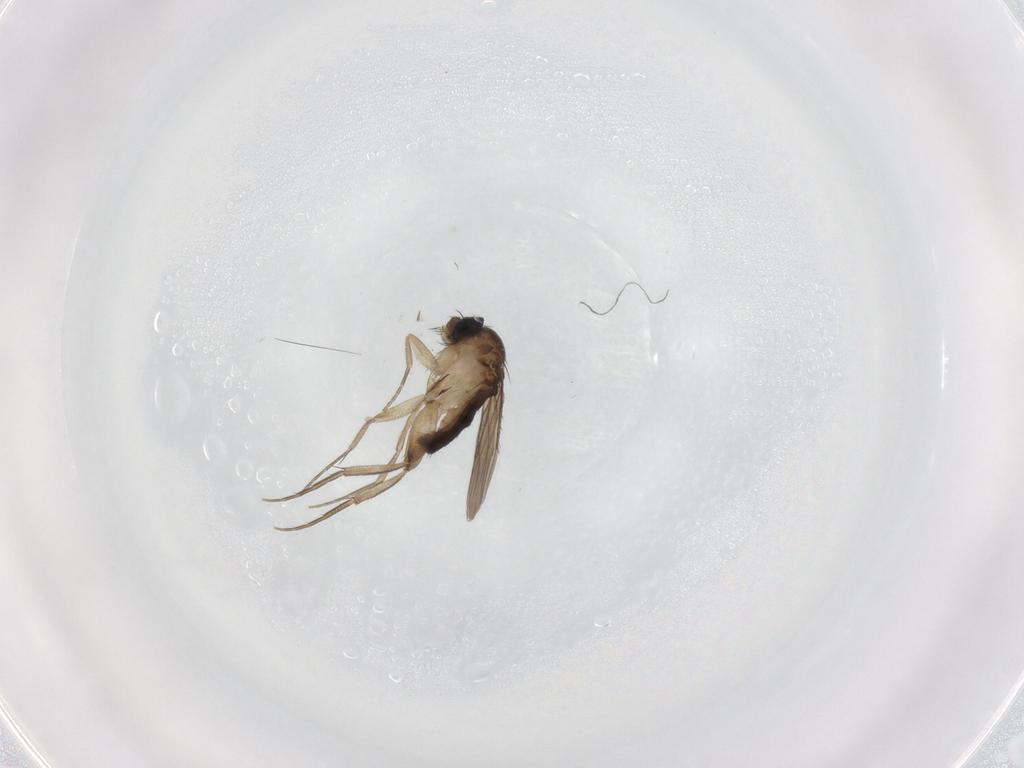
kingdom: Animalia
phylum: Arthropoda
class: Insecta
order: Diptera
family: Phoridae
